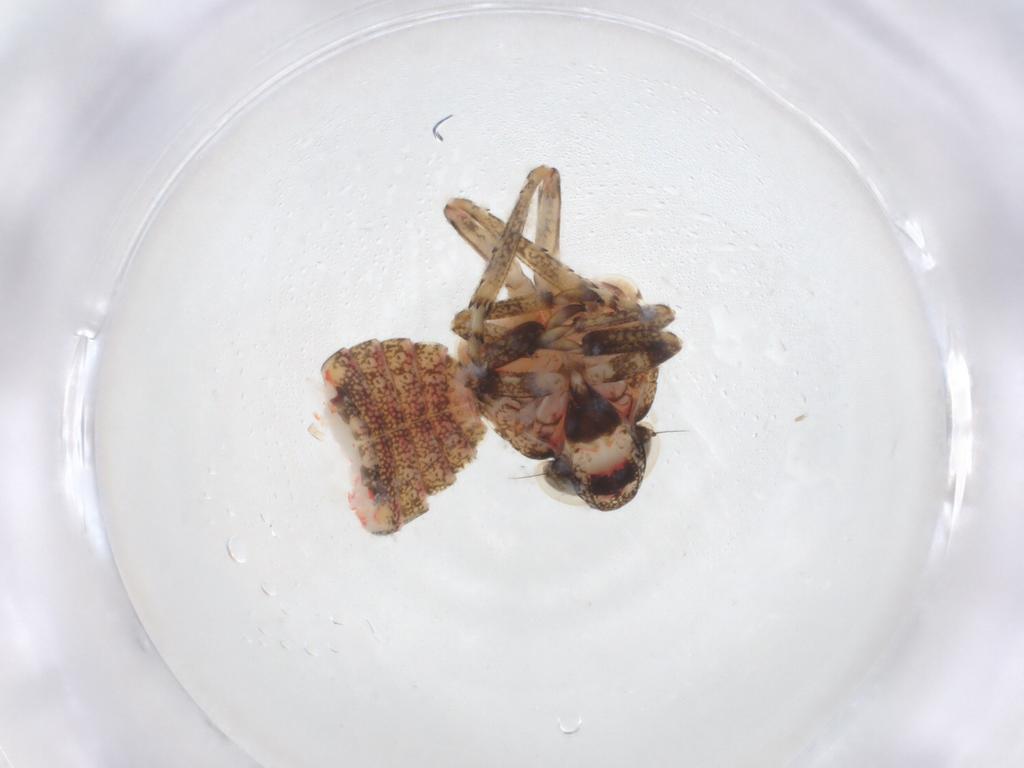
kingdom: Animalia
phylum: Arthropoda
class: Insecta
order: Hemiptera
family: Issidae
